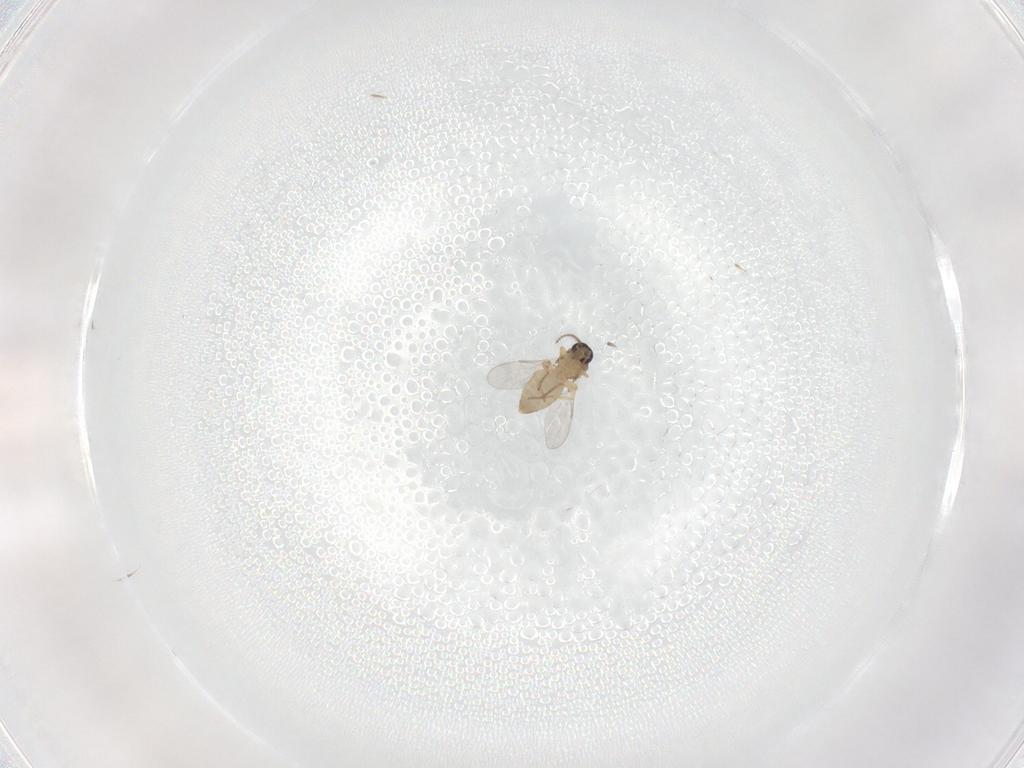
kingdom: Animalia
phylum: Arthropoda
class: Insecta
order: Diptera
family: Ceratopogonidae
